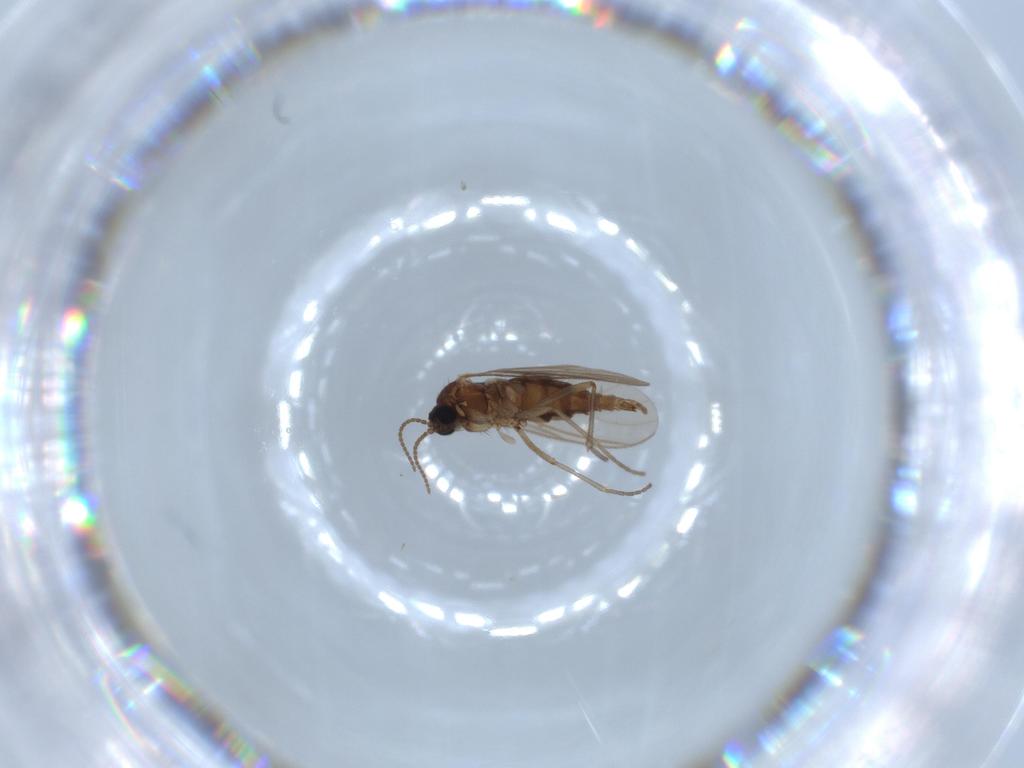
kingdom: Animalia
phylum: Arthropoda
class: Insecta
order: Diptera
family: Sciaridae
